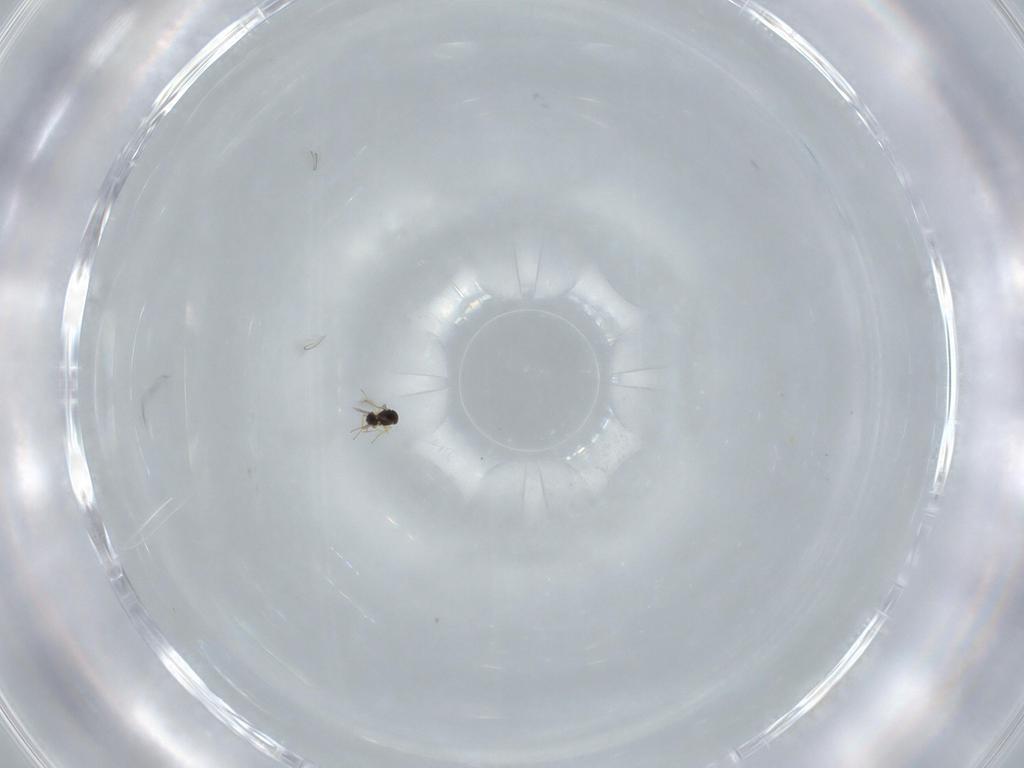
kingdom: Animalia
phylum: Arthropoda
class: Insecta
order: Hymenoptera
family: Mymaridae
